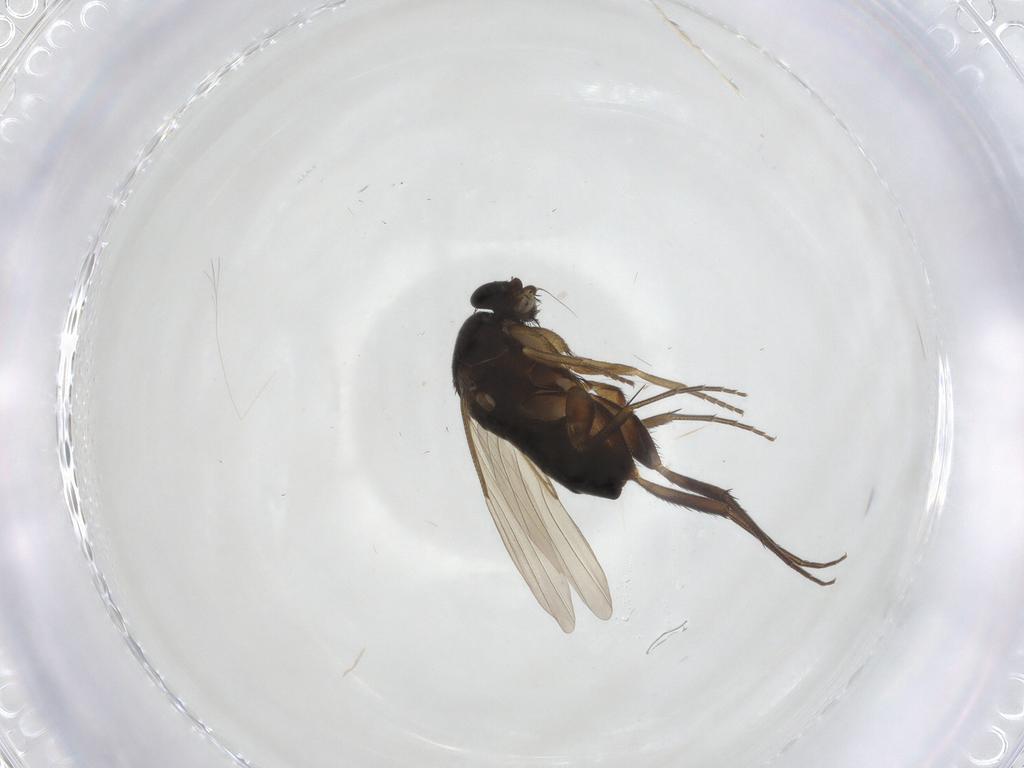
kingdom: Animalia
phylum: Arthropoda
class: Insecta
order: Diptera
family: Phoridae
